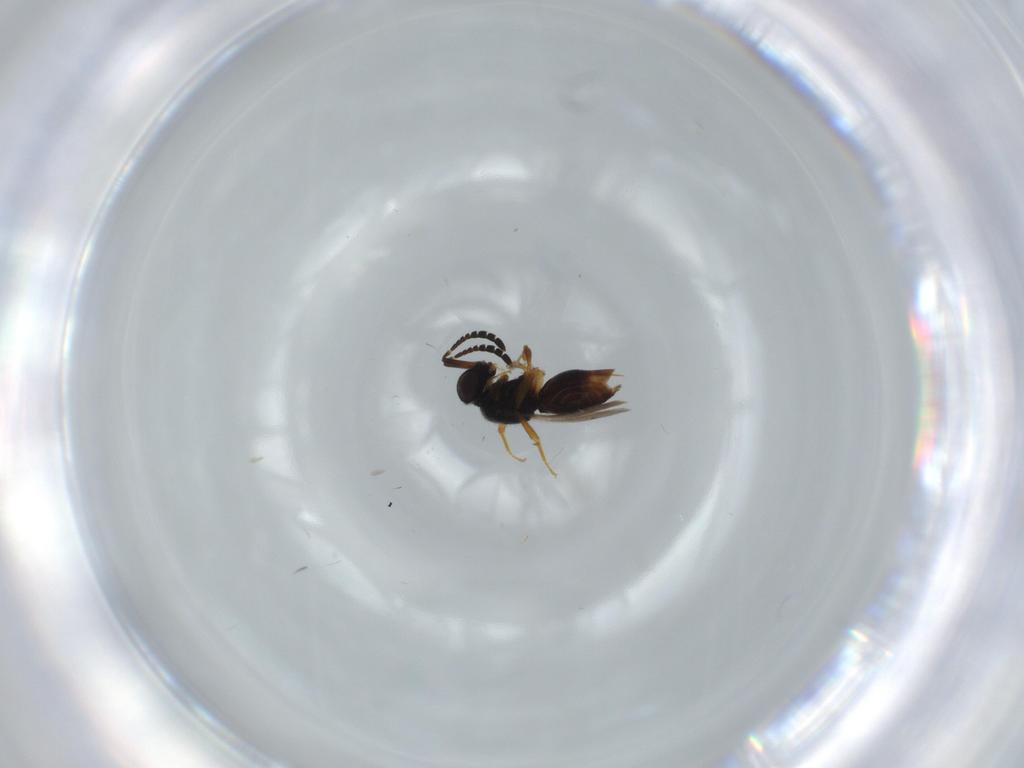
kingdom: Animalia
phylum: Arthropoda
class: Insecta
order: Hymenoptera
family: Ceraphronidae
